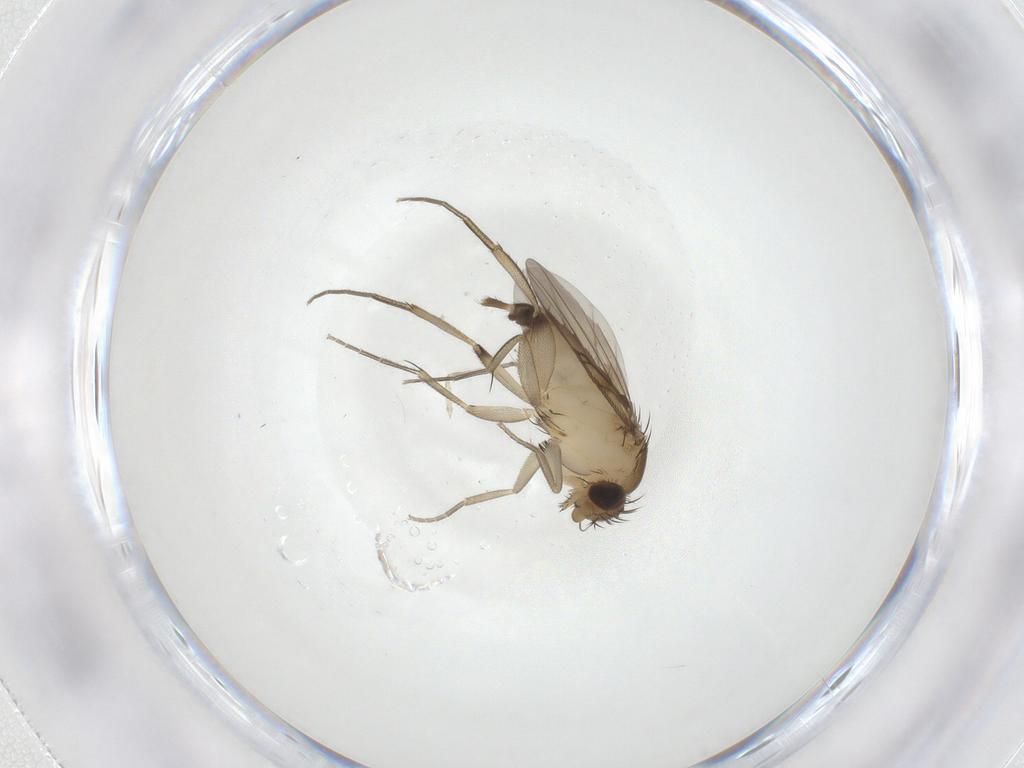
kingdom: Animalia
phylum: Arthropoda
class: Insecta
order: Diptera
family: Phoridae
